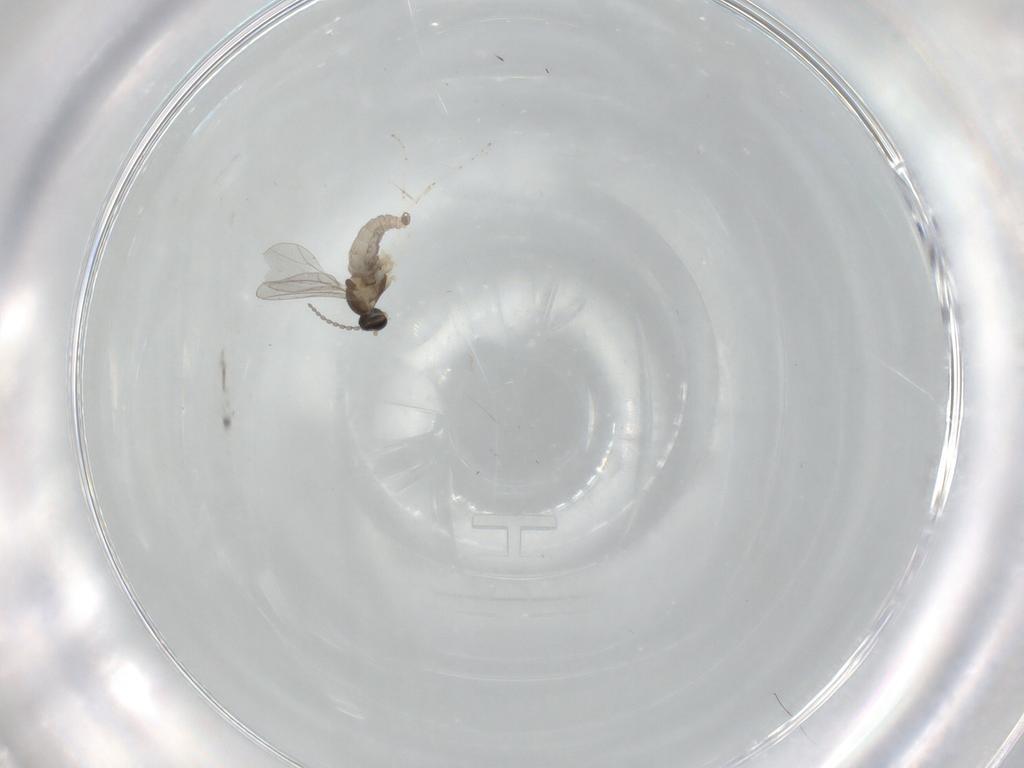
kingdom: Animalia
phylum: Arthropoda
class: Insecta
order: Diptera
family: Cecidomyiidae
